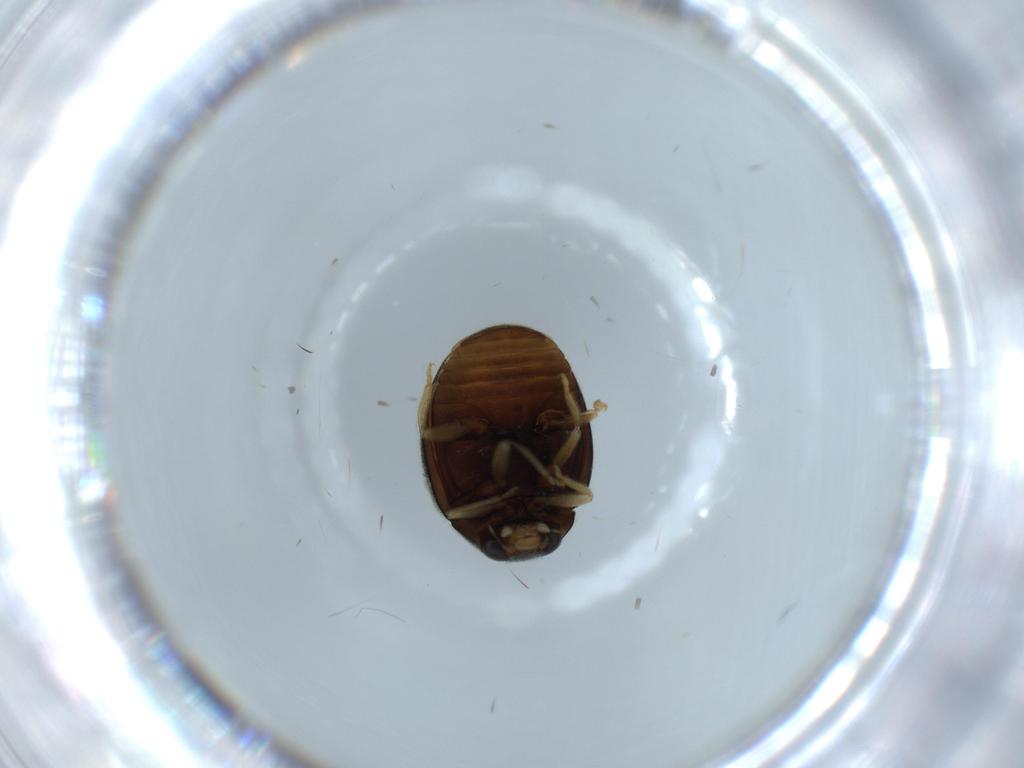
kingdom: Animalia
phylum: Arthropoda
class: Insecta
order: Coleoptera
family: Coccinellidae
